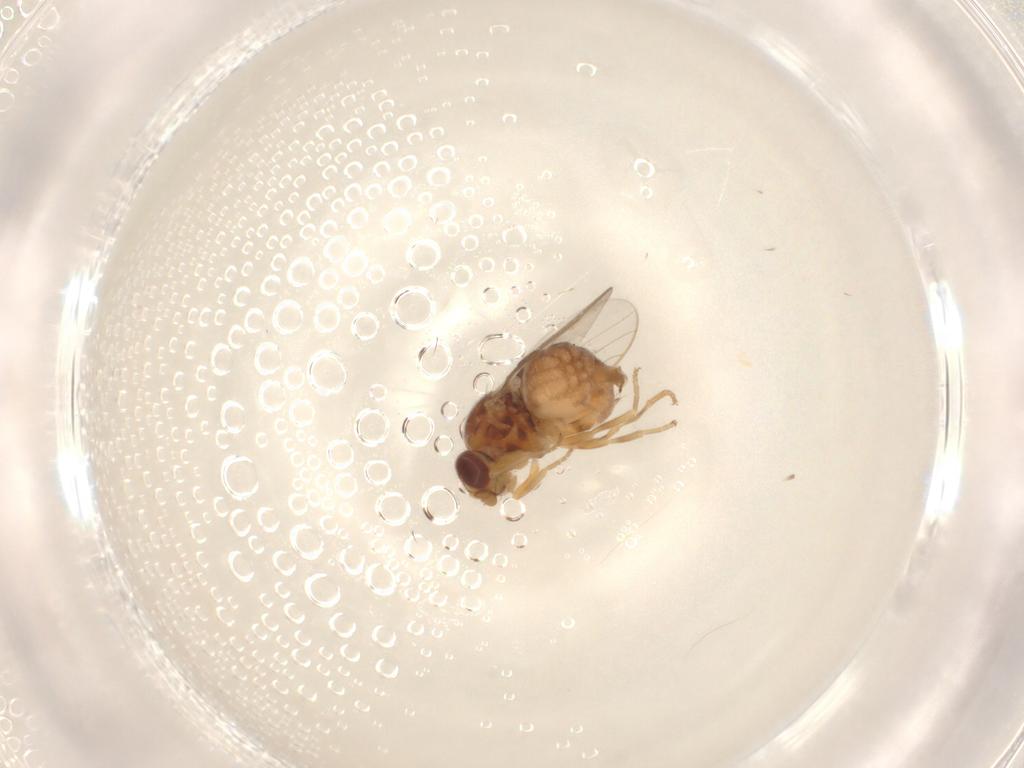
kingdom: Animalia
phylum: Arthropoda
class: Insecta
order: Diptera
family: Chloropidae
